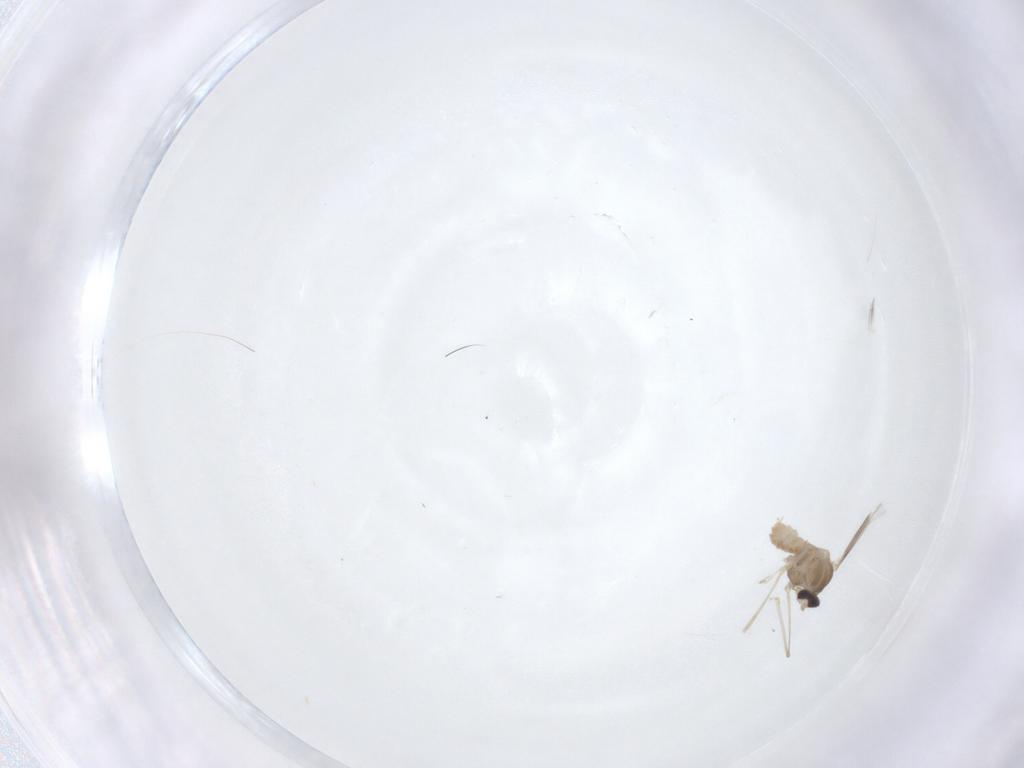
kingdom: Animalia
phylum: Arthropoda
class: Insecta
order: Diptera
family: Cecidomyiidae
